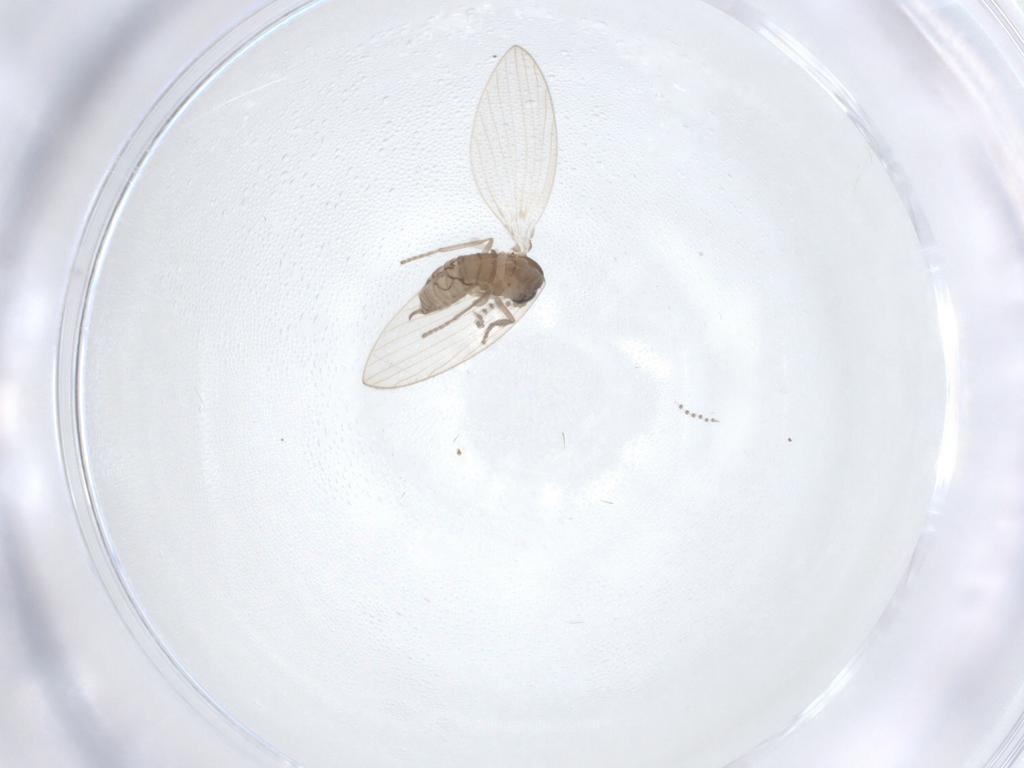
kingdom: Animalia
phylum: Arthropoda
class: Insecta
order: Diptera
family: Psychodidae
